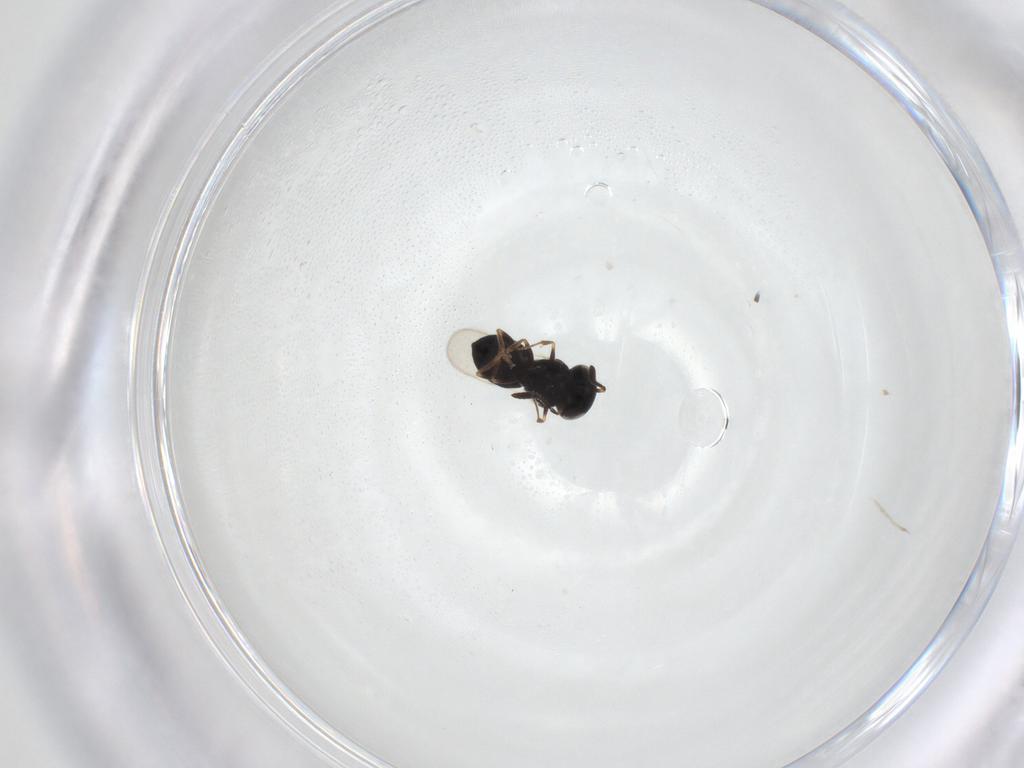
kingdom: Animalia
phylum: Arthropoda
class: Insecta
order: Hymenoptera
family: Scelionidae
